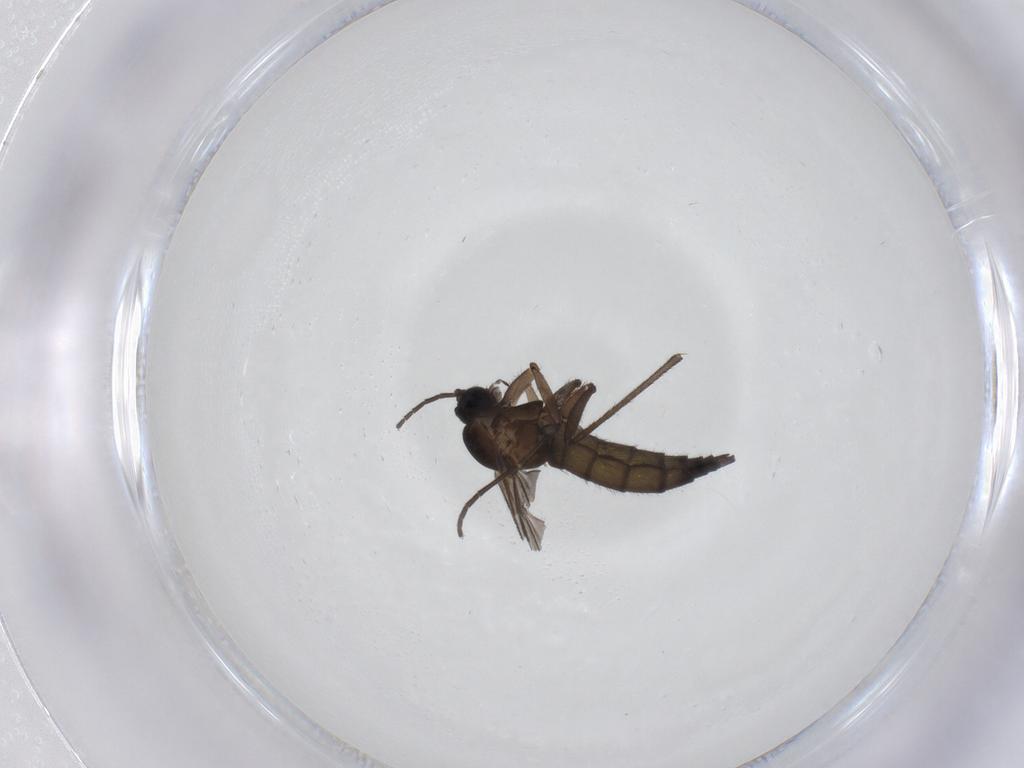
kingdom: Animalia
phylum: Arthropoda
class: Insecta
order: Diptera
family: Sciaridae
